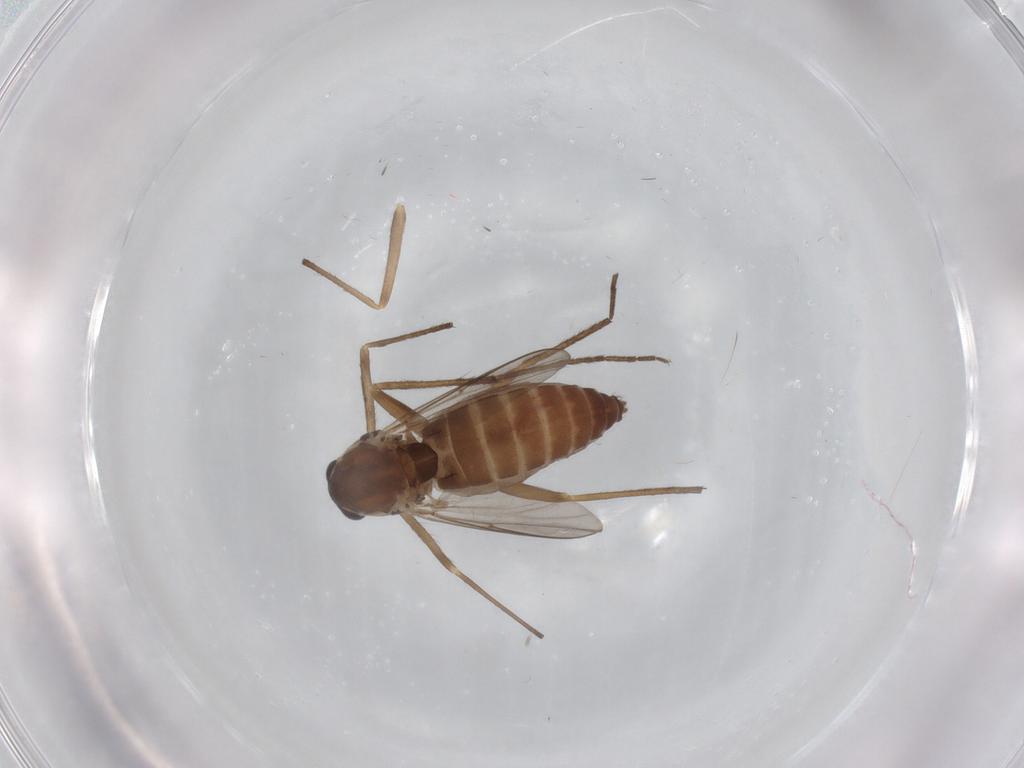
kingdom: Animalia
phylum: Arthropoda
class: Insecta
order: Diptera
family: Chironomidae
